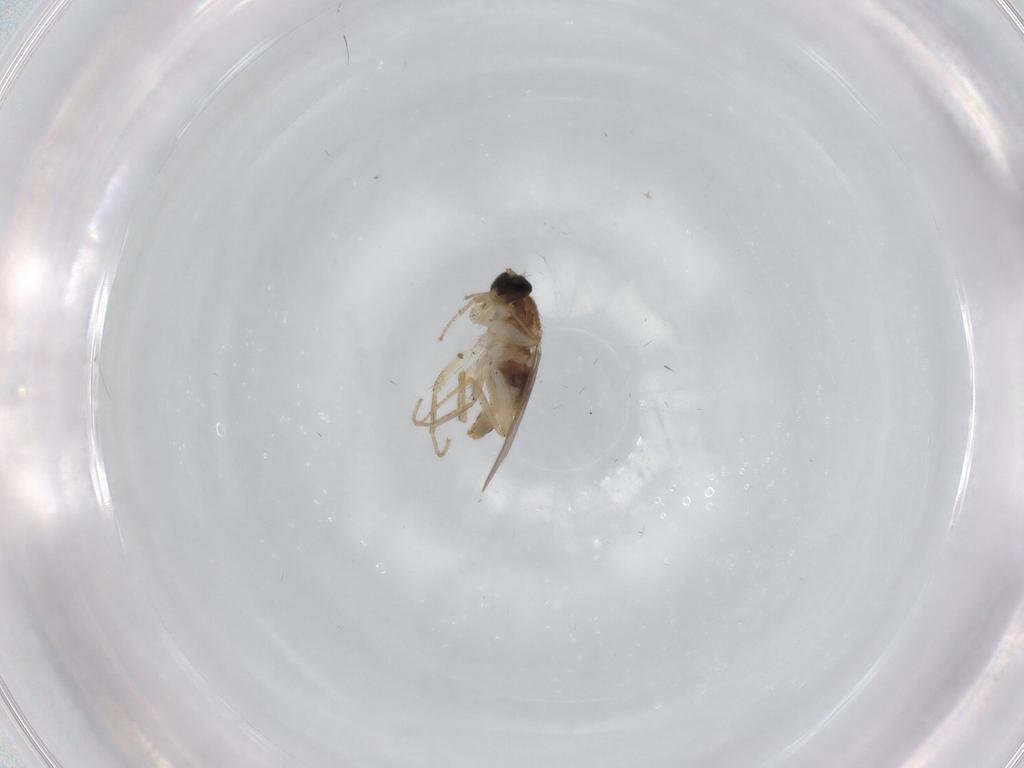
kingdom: Animalia
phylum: Arthropoda
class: Insecta
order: Diptera
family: Hybotidae
